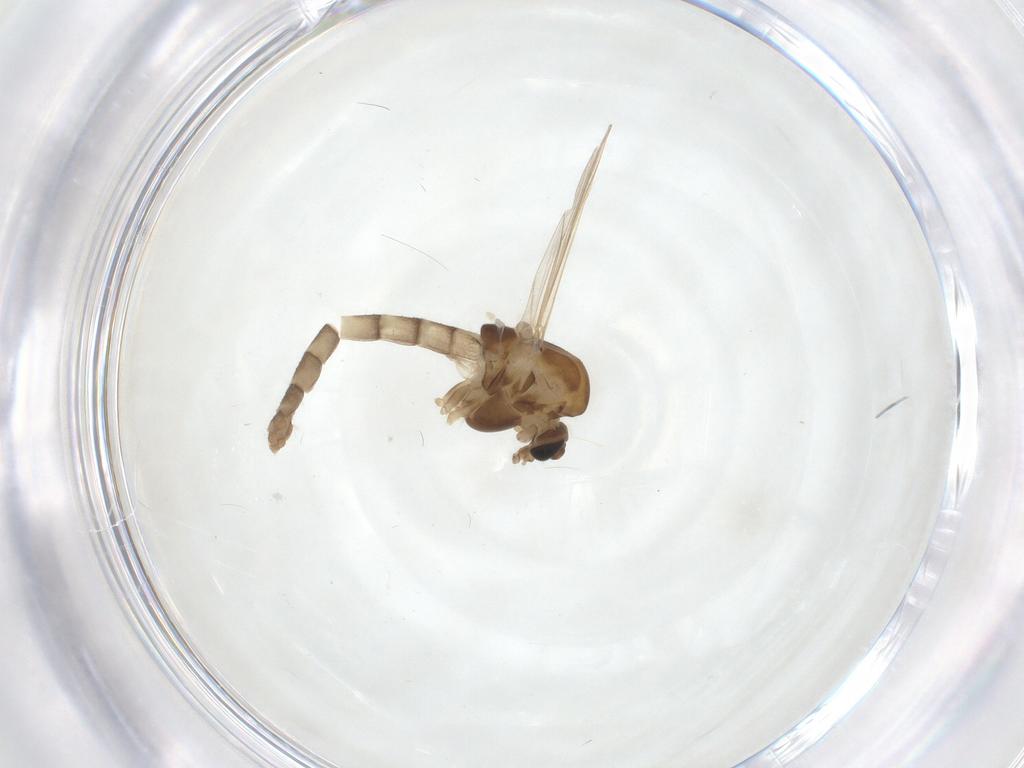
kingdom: Animalia
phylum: Arthropoda
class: Insecta
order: Diptera
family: Chironomidae
